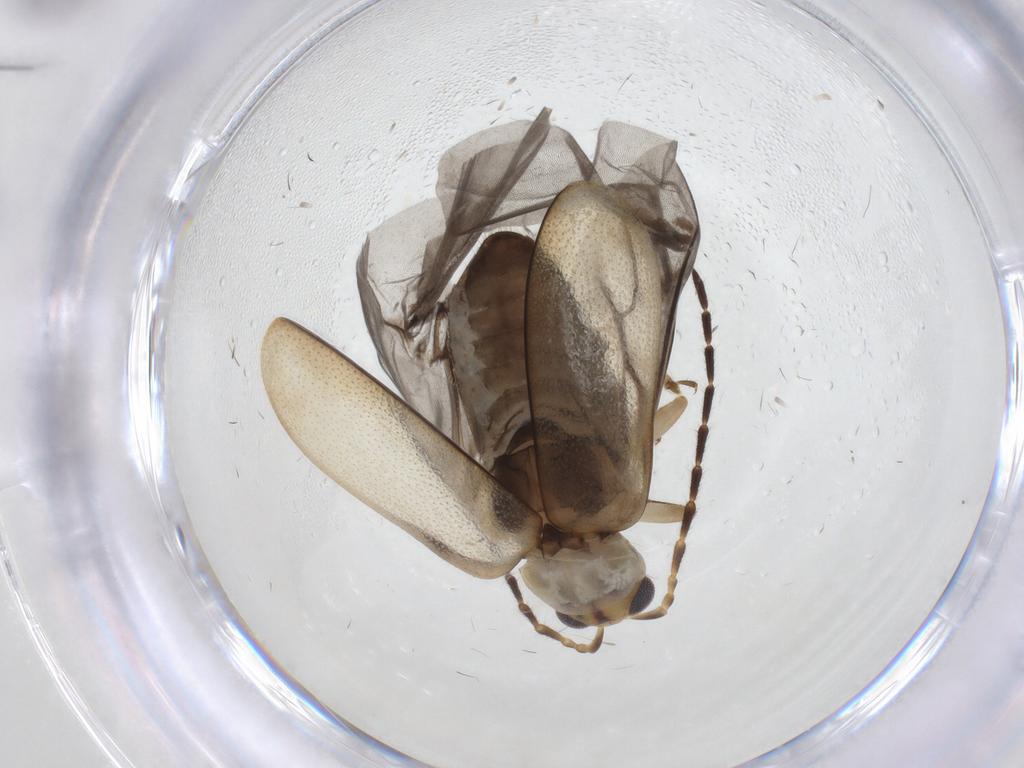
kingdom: Animalia
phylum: Arthropoda
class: Insecta
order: Coleoptera
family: Chrysomelidae
